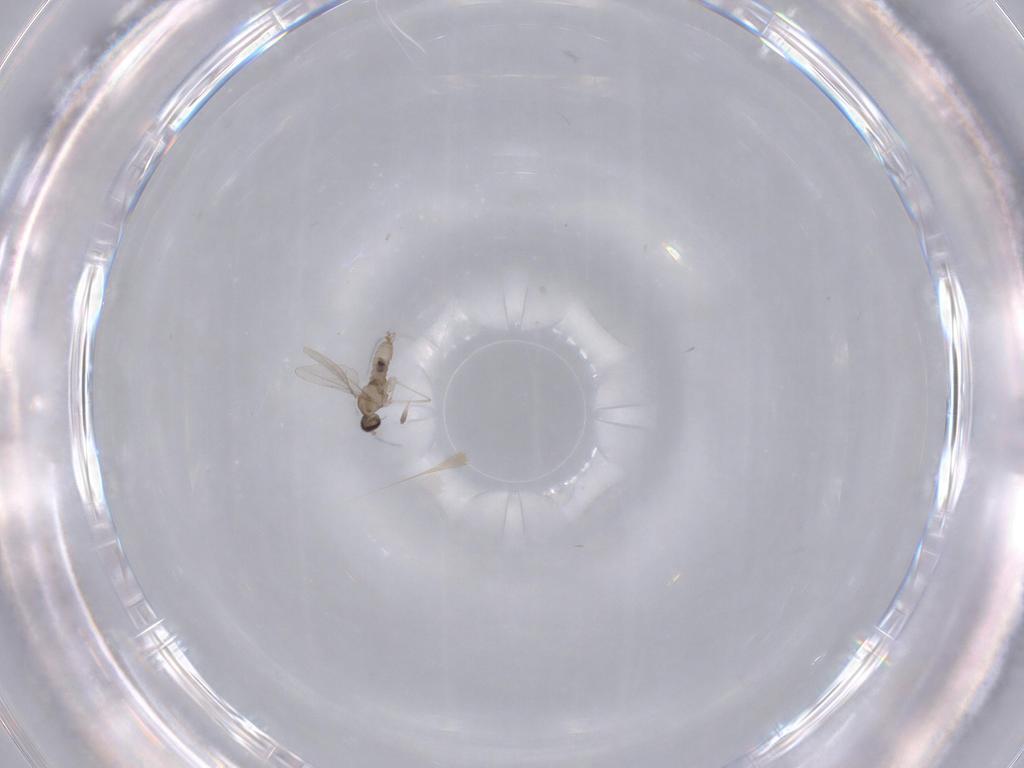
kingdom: Animalia
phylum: Arthropoda
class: Insecta
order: Diptera
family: Cecidomyiidae
